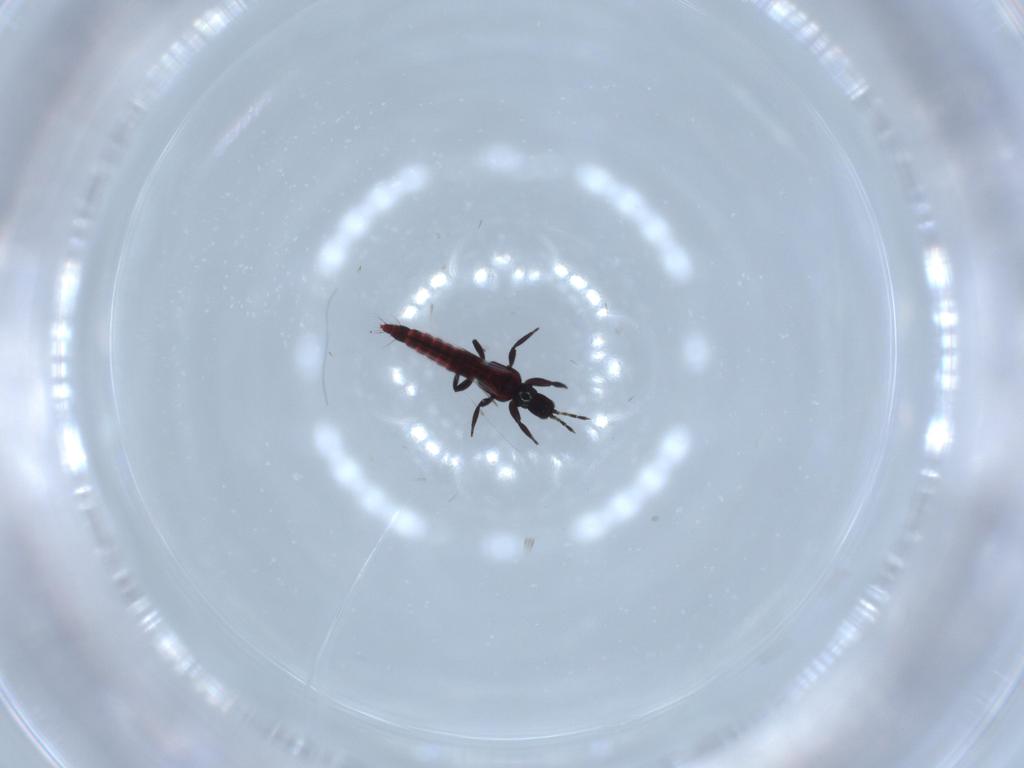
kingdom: Animalia
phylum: Arthropoda
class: Insecta
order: Thysanoptera
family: Aeolothripidae
